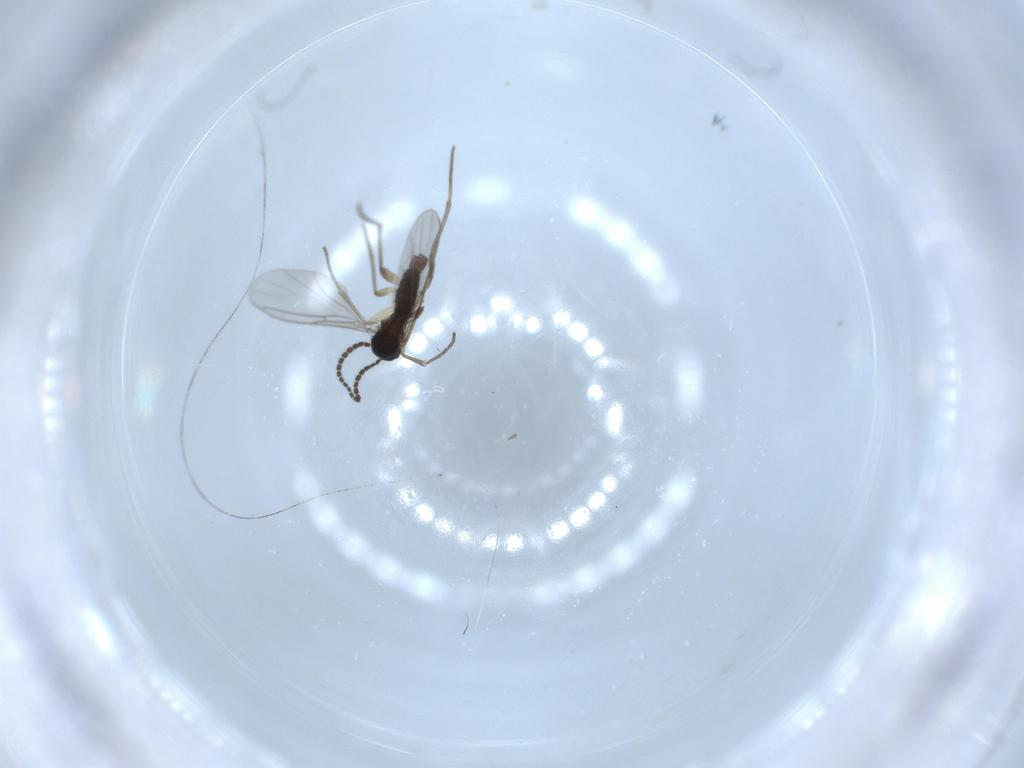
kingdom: Animalia
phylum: Arthropoda
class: Insecta
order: Diptera
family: Sciaridae
